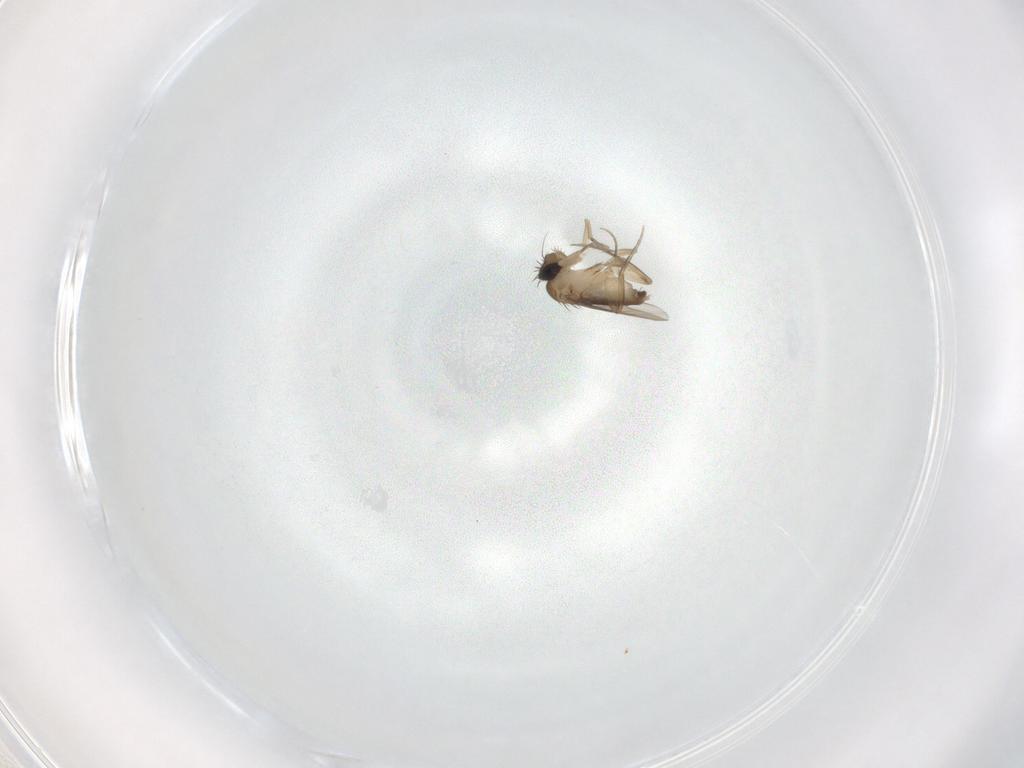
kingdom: Animalia
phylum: Arthropoda
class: Insecta
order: Diptera
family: Phoridae
